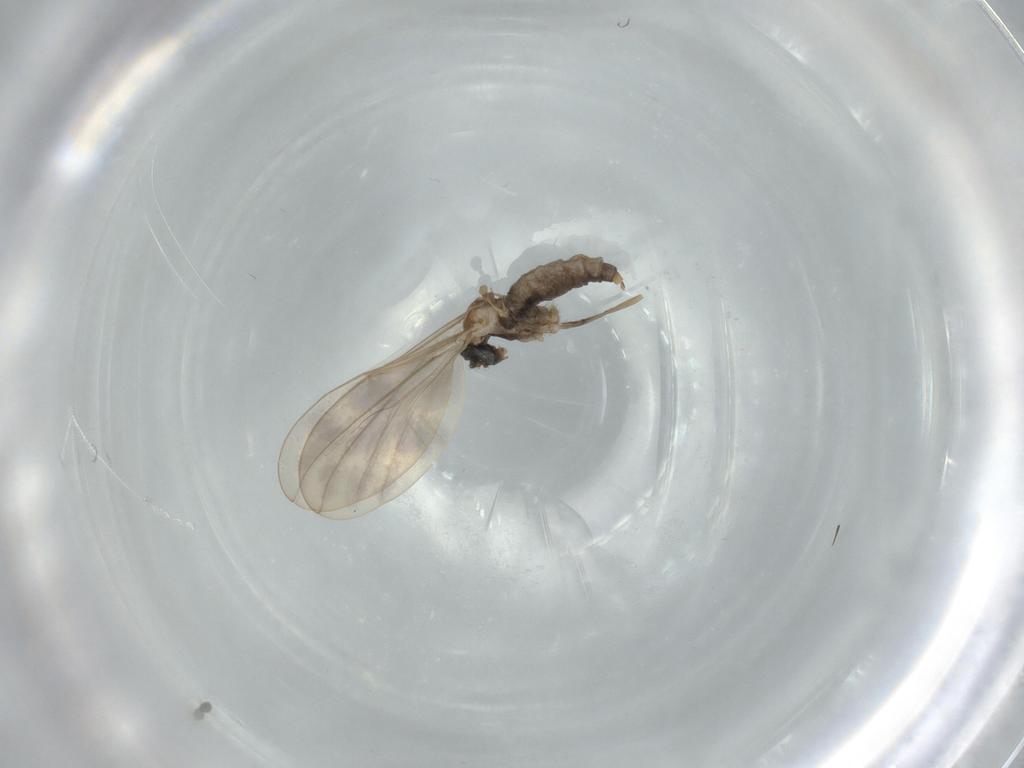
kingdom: Animalia
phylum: Arthropoda
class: Insecta
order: Diptera
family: Cecidomyiidae
